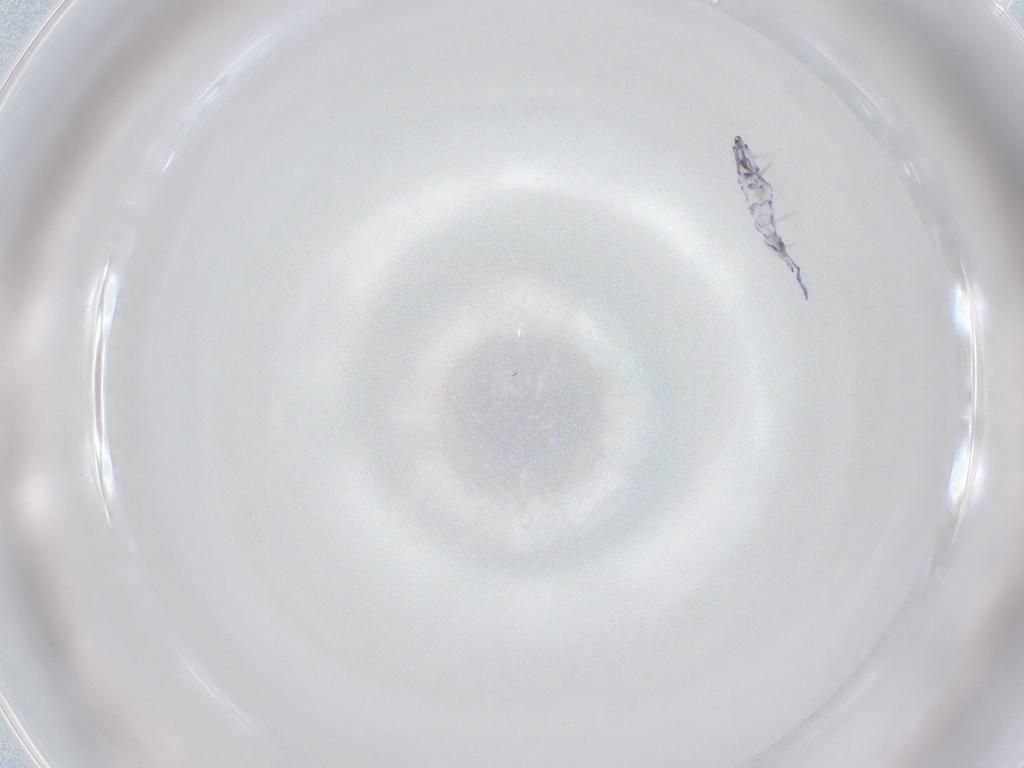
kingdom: Animalia
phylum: Arthropoda
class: Collembola
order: Entomobryomorpha
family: Entomobryidae
